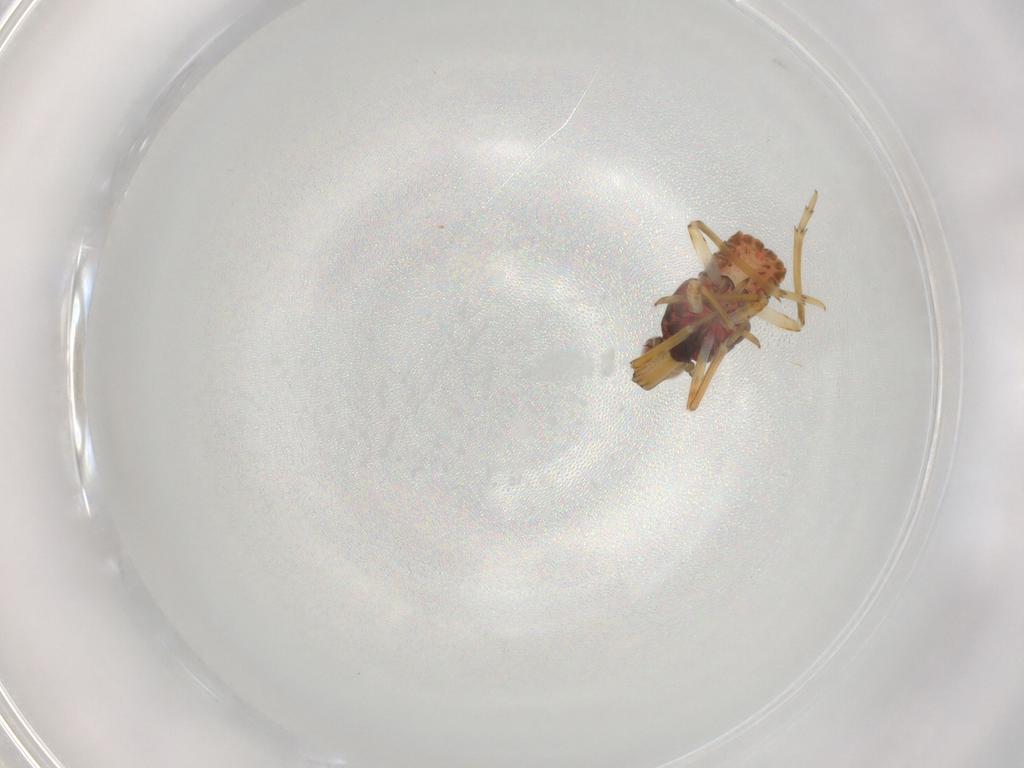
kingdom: Animalia
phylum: Arthropoda
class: Insecta
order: Hemiptera
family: Fulgoroidea_incertae_sedis
